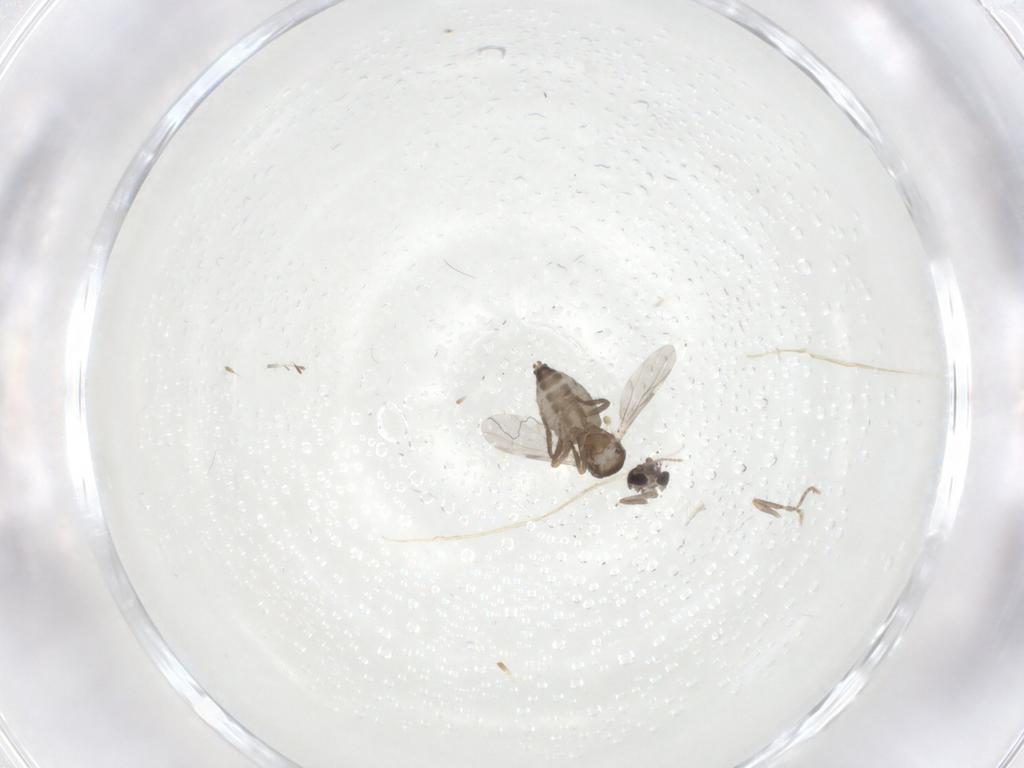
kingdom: Animalia
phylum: Arthropoda
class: Insecta
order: Diptera
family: Ceratopogonidae
